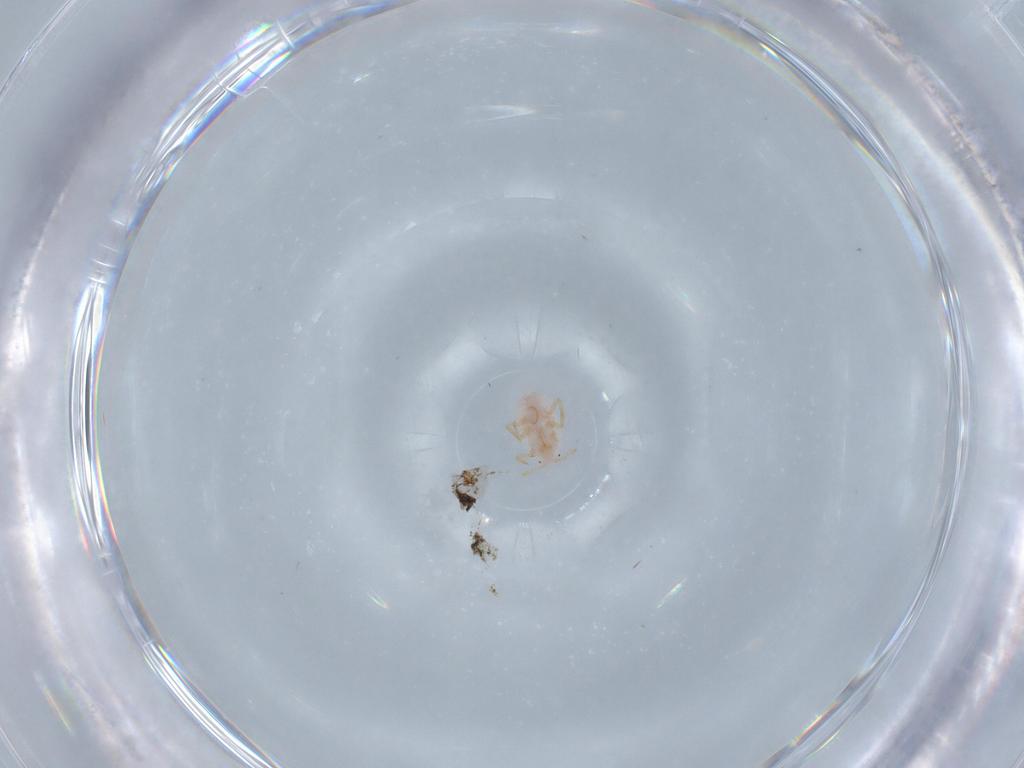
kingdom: Animalia
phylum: Arthropoda
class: Insecta
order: Hemiptera
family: Pseudococcidae
